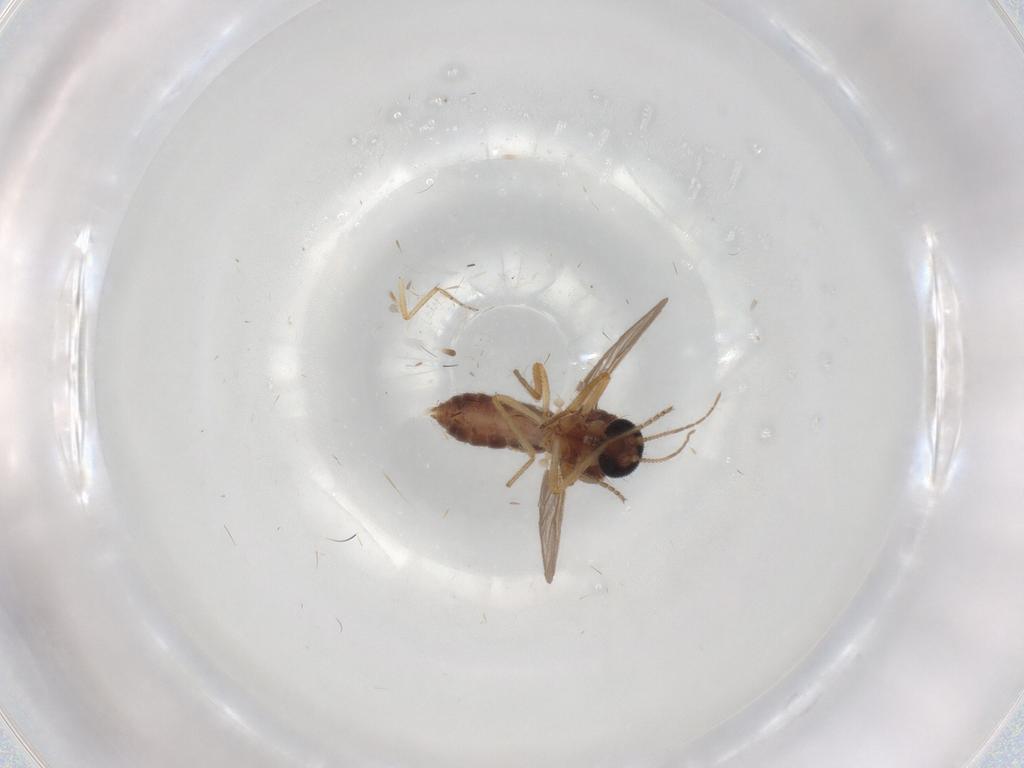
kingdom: Animalia
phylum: Arthropoda
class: Insecta
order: Diptera
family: Ceratopogonidae
